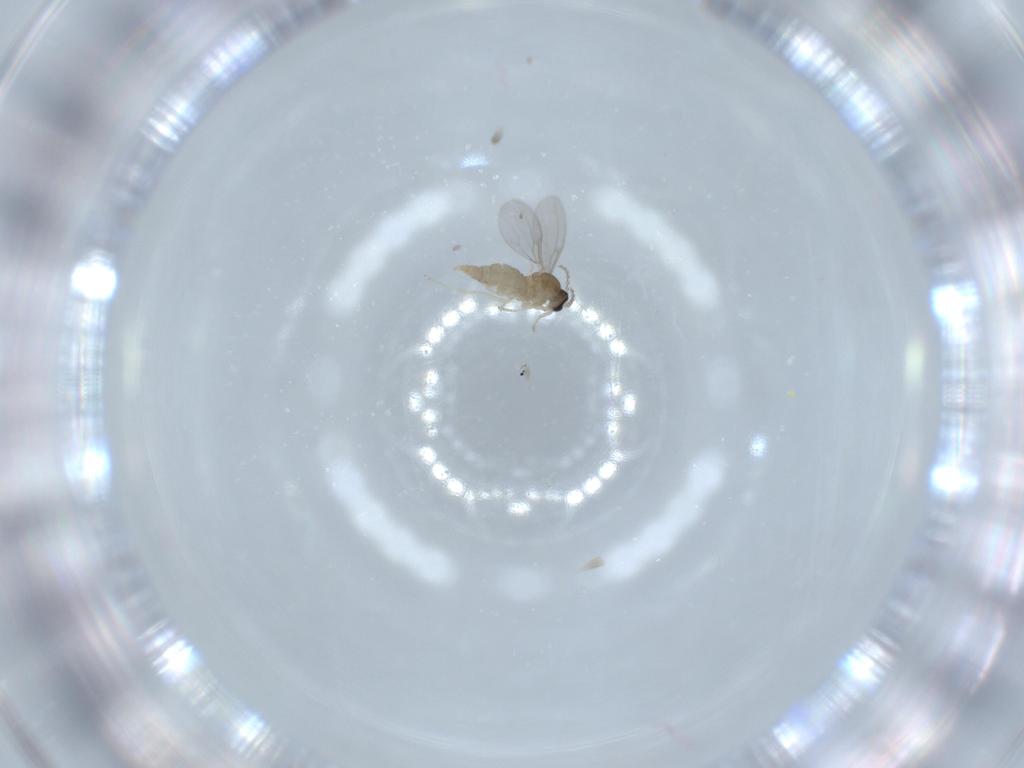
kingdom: Animalia
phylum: Arthropoda
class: Insecta
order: Diptera
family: Cecidomyiidae
